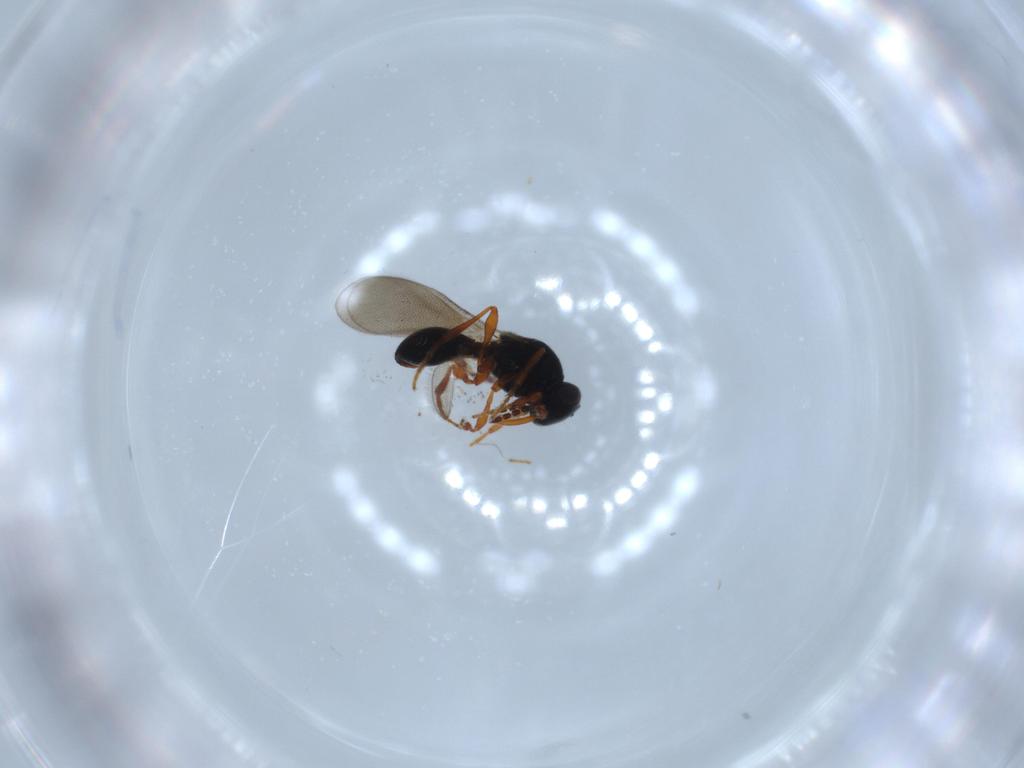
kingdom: Animalia
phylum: Arthropoda
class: Insecta
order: Hymenoptera
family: Platygastridae
